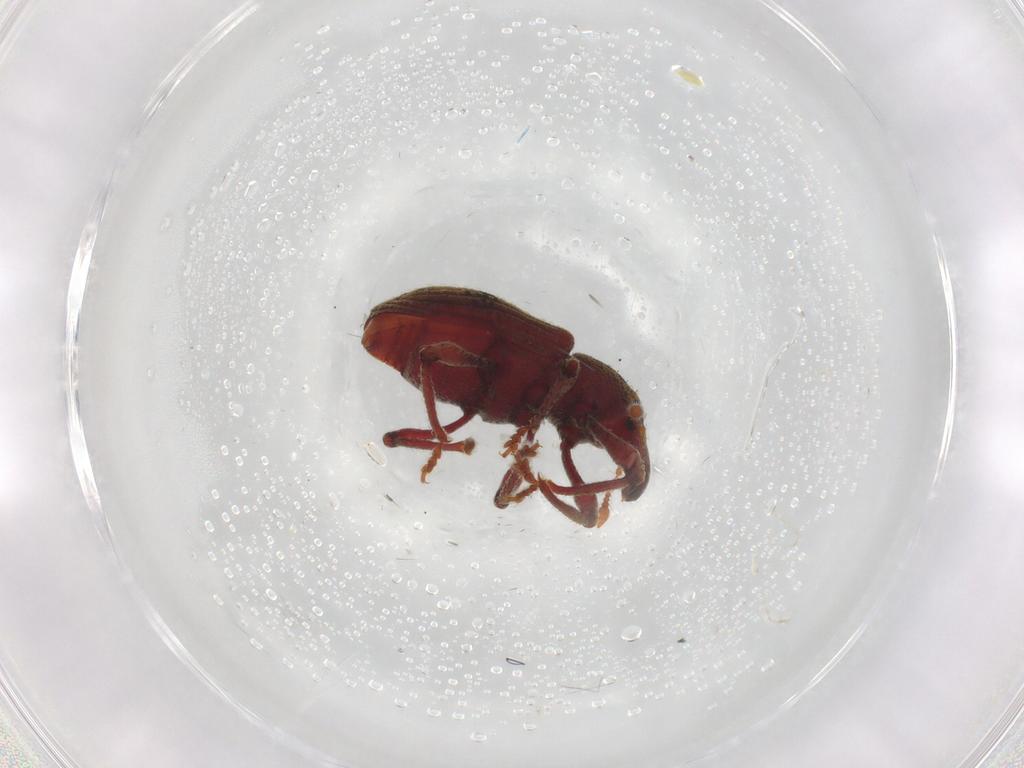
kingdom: Animalia
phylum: Arthropoda
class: Insecta
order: Coleoptera
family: Curculionidae
